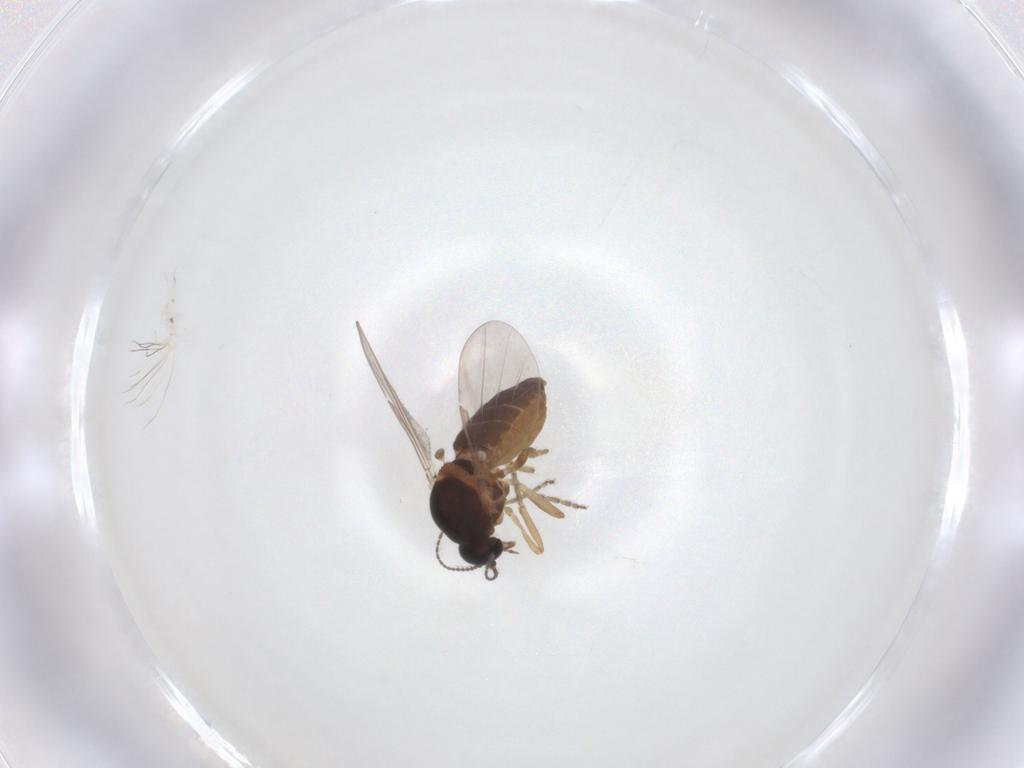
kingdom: Animalia
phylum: Arthropoda
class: Insecta
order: Diptera
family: Ceratopogonidae
